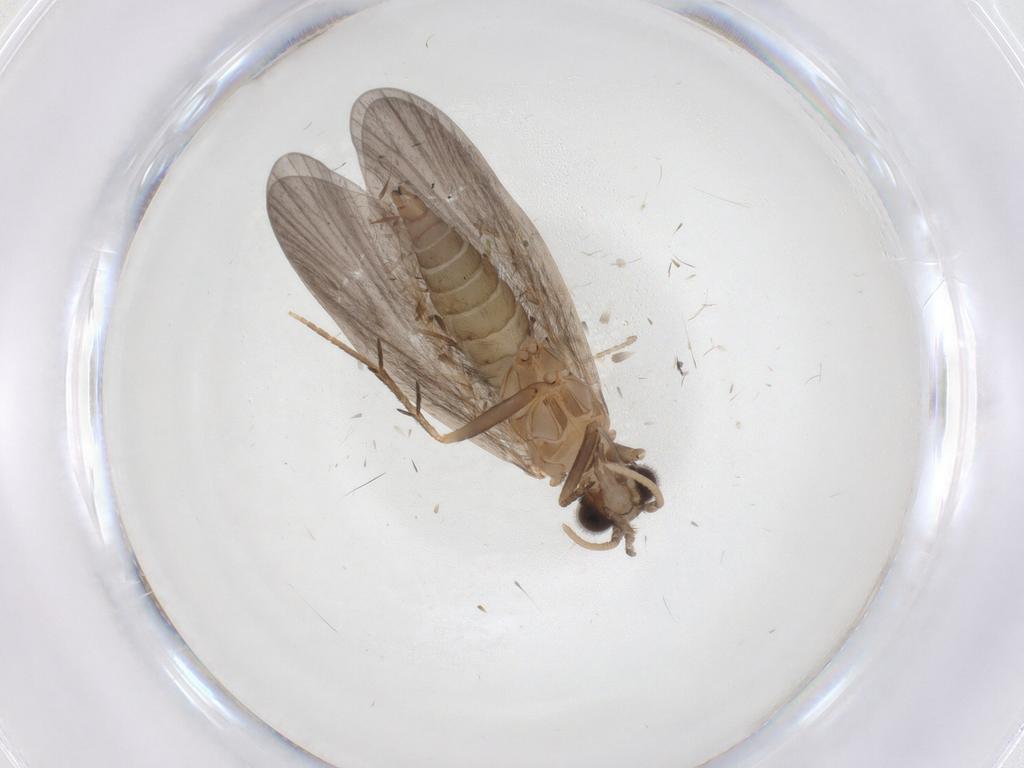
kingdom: Animalia
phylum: Arthropoda
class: Insecta
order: Trichoptera
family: Philopotamidae
